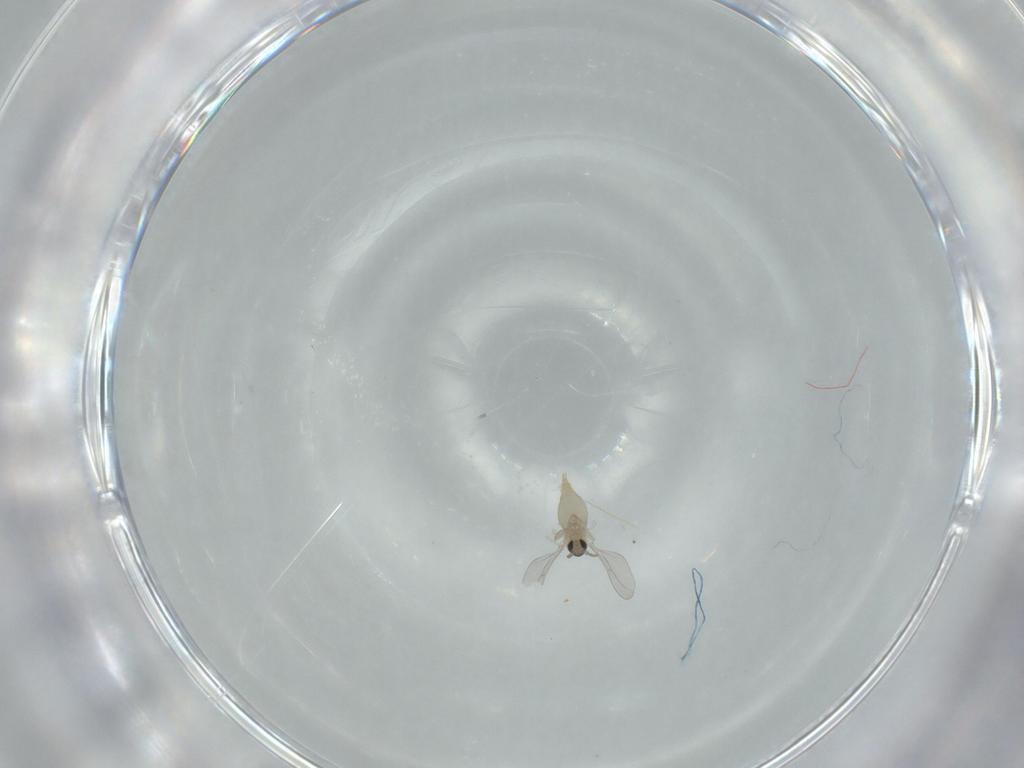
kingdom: Animalia
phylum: Arthropoda
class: Insecta
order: Diptera
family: Cecidomyiidae
